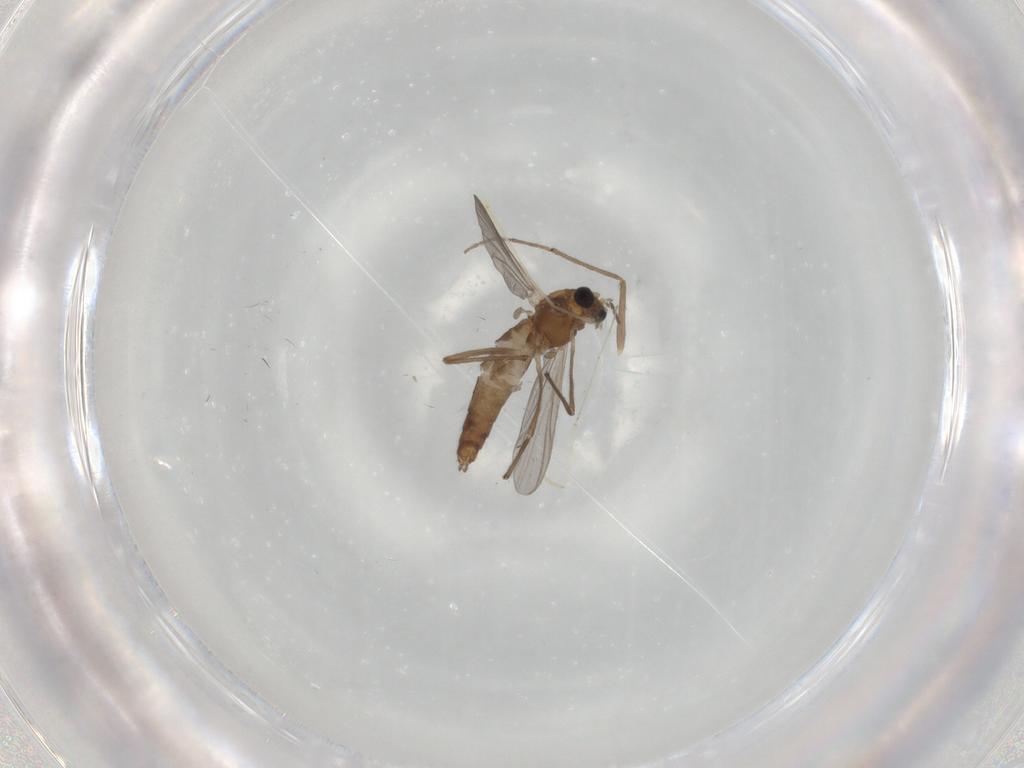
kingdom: Animalia
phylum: Arthropoda
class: Insecta
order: Diptera
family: Chironomidae
